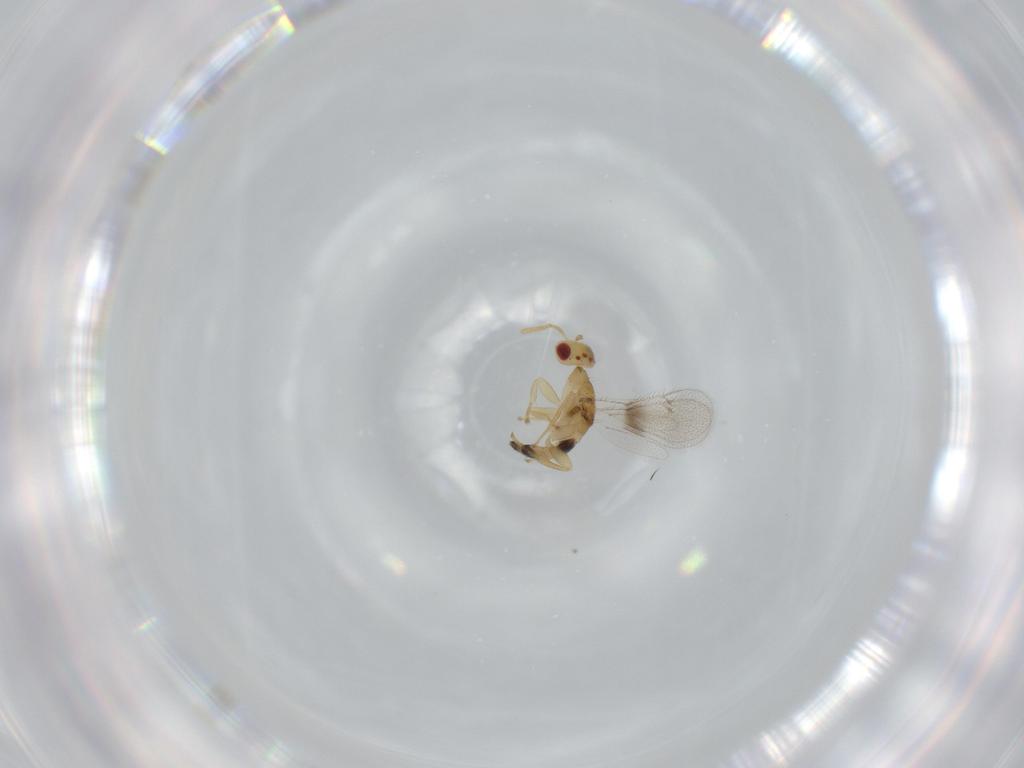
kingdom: Animalia
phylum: Arthropoda
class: Insecta
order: Hymenoptera
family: Torymidae
